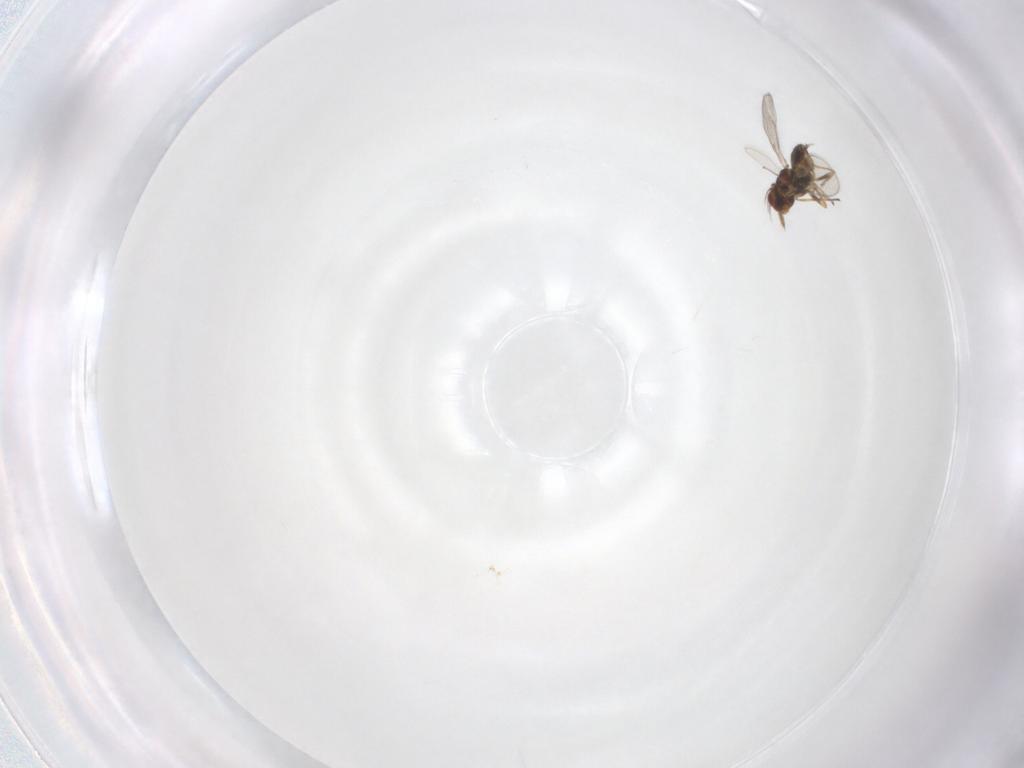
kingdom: Animalia
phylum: Arthropoda
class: Insecta
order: Hymenoptera
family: Eulophidae
